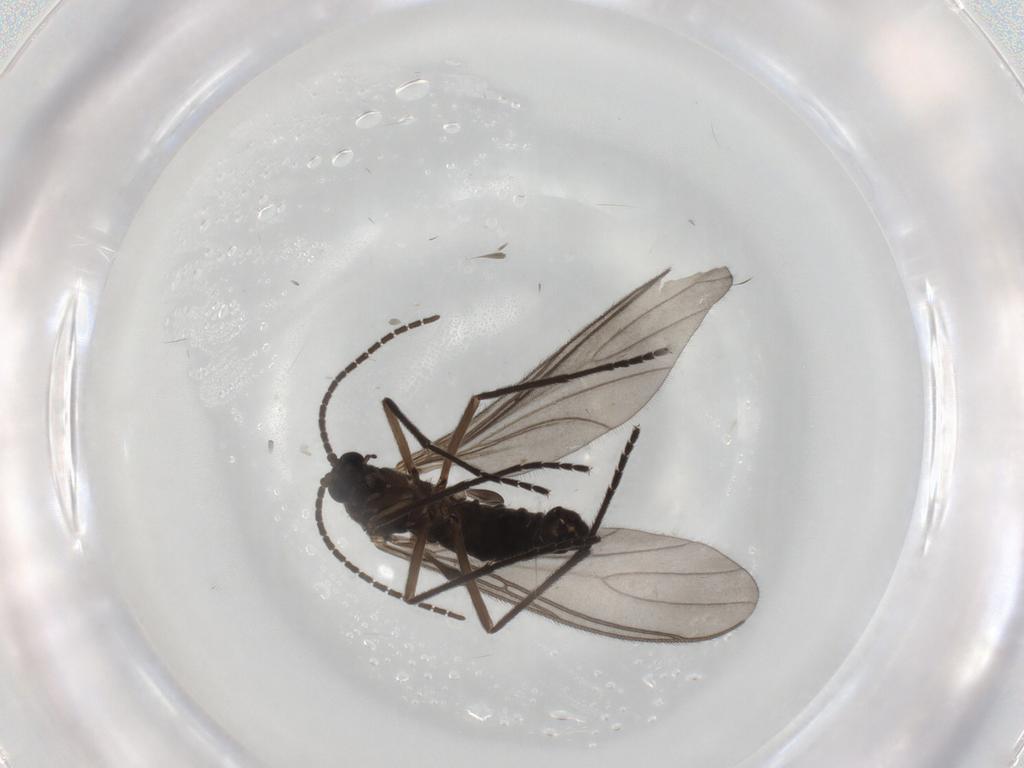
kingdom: Animalia
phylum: Arthropoda
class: Insecta
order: Diptera
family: Sciaridae
